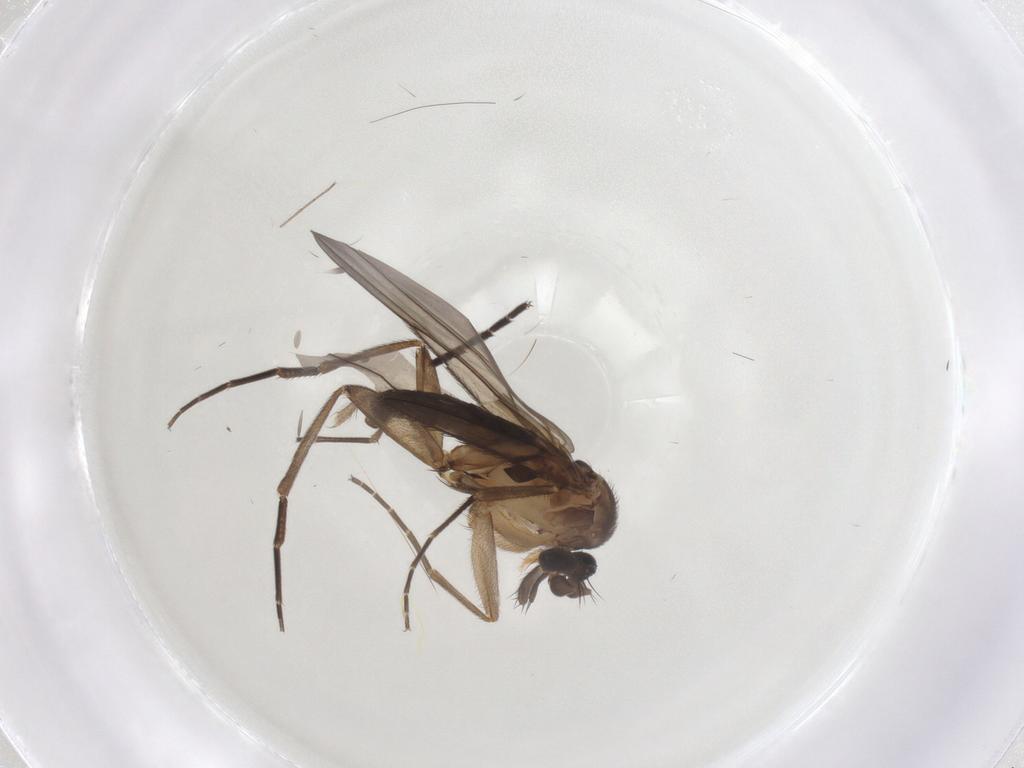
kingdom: Animalia
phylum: Arthropoda
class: Insecta
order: Diptera
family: Phoridae
